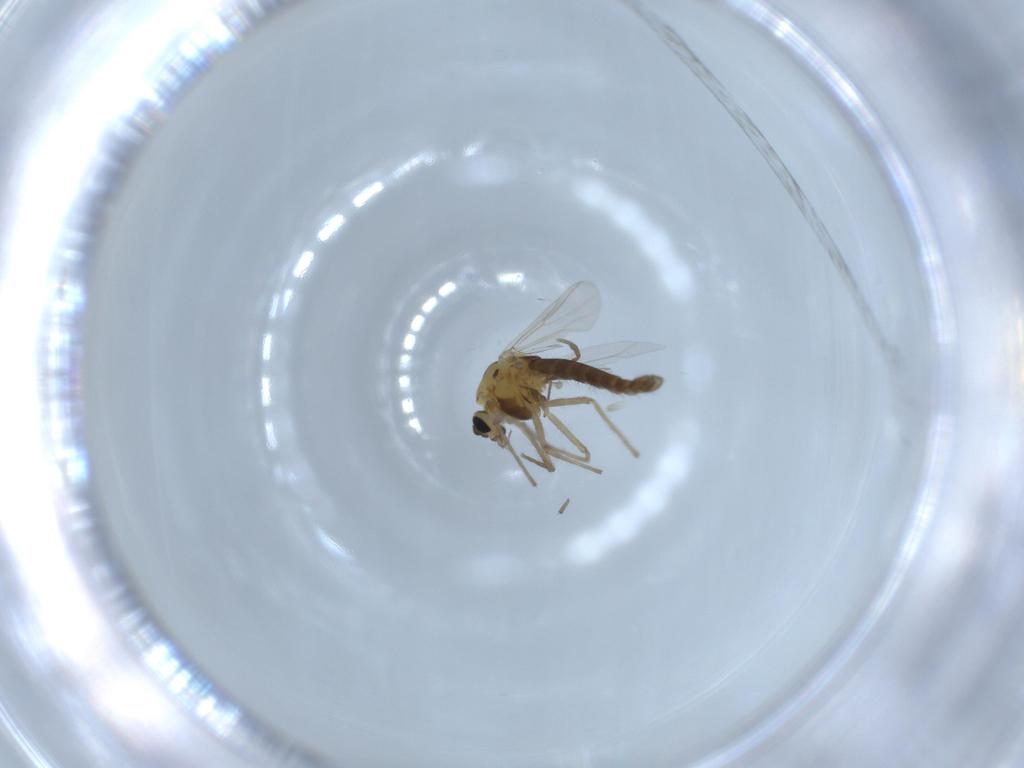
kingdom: Animalia
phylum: Arthropoda
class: Insecta
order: Diptera
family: Chironomidae
